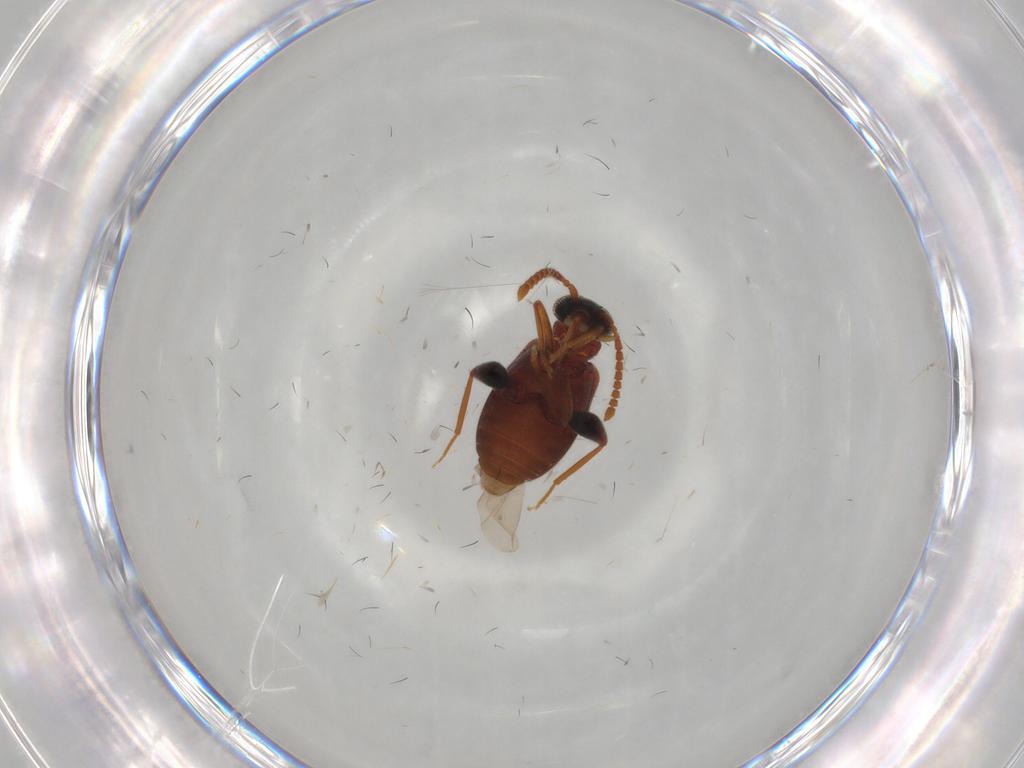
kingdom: Animalia
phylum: Arthropoda
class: Insecta
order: Coleoptera
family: Aderidae
